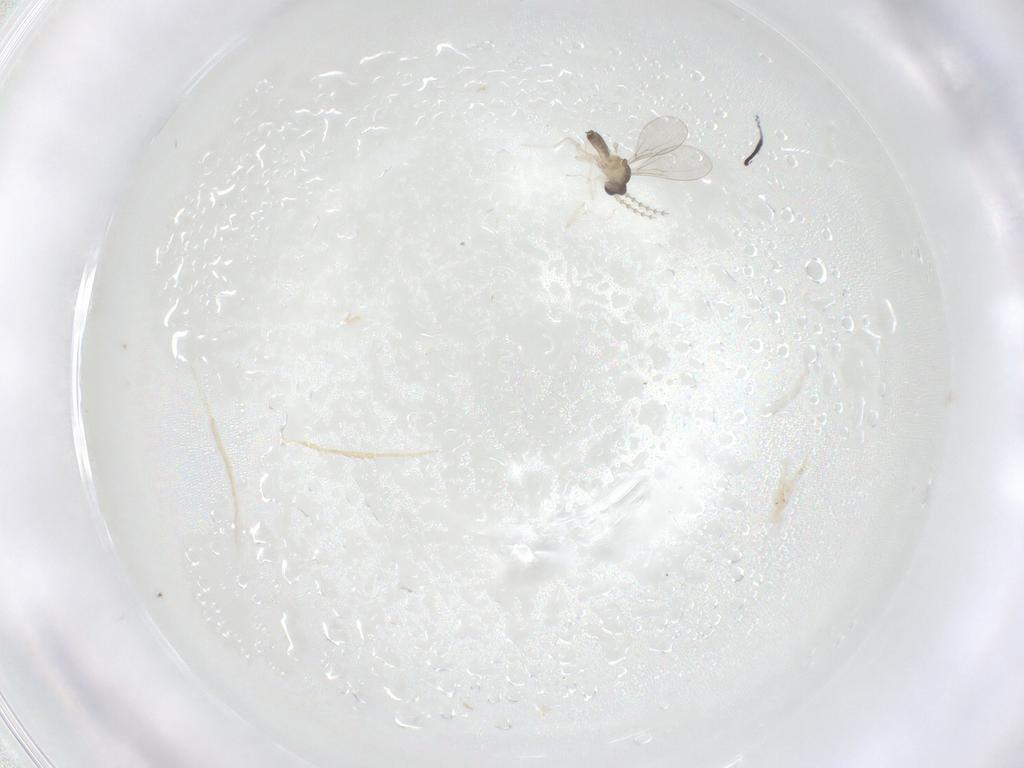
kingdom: Animalia
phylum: Arthropoda
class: Insecta
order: Diptera
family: Cecidomyiidae
